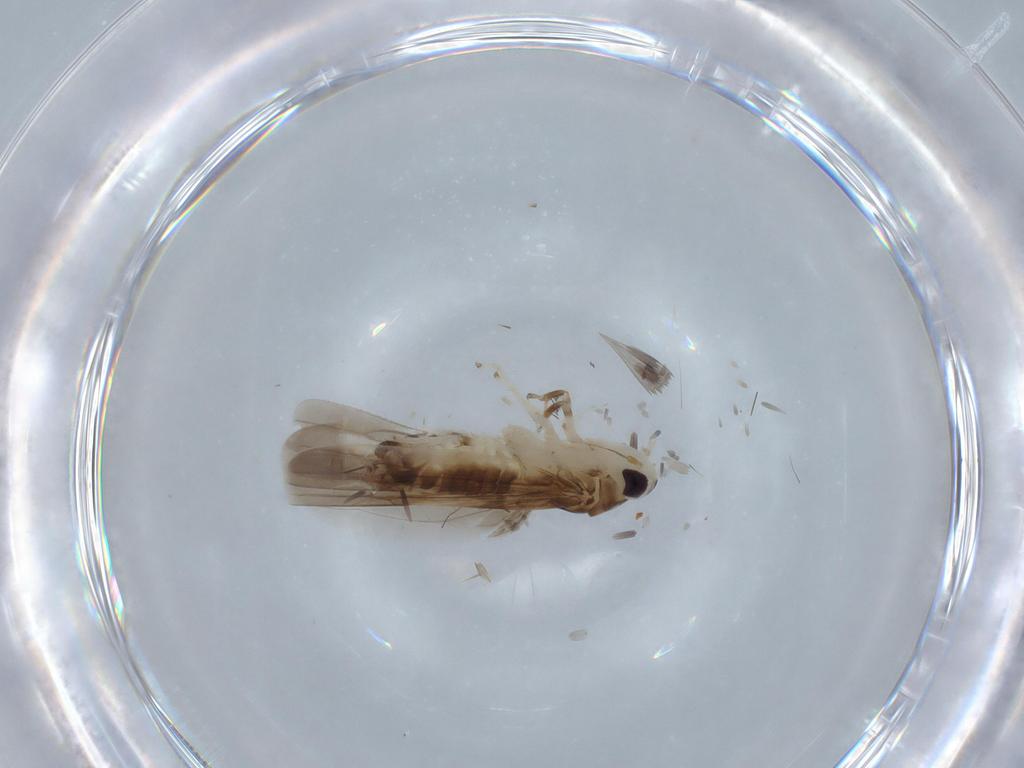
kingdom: Animalia
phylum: Arthropoda
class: Insecta
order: Hemiptera
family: Cicadellidae
